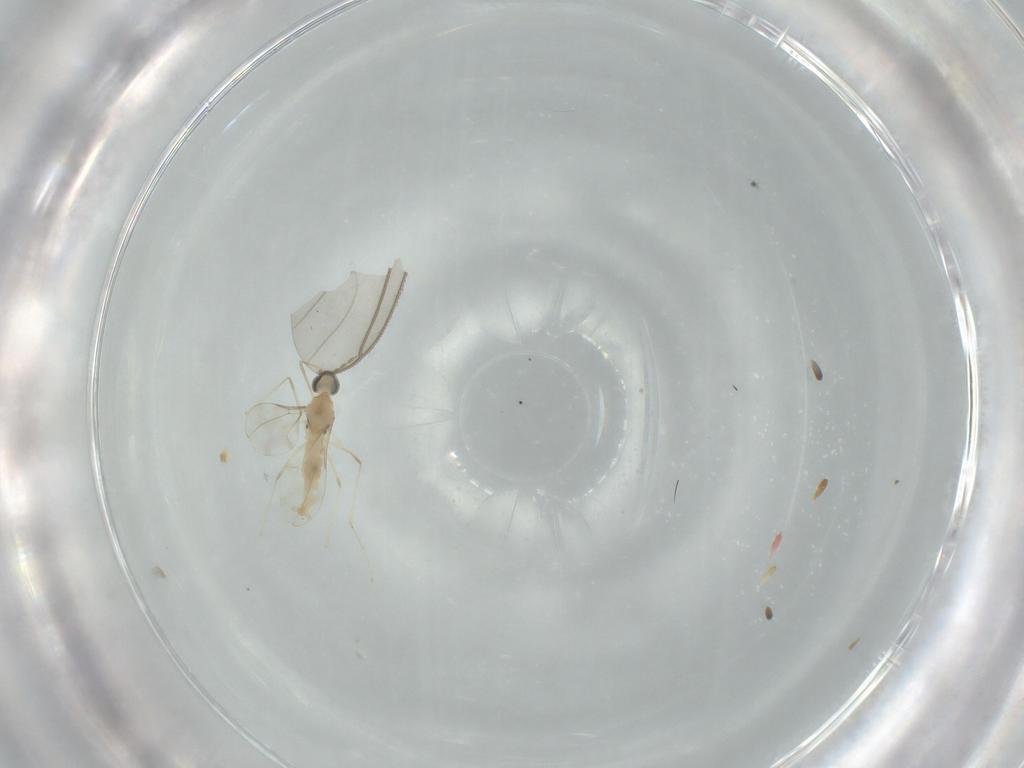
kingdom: Animalia
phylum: Arthropoda
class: Insecta
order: Diptera
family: Cecidomyiidae
